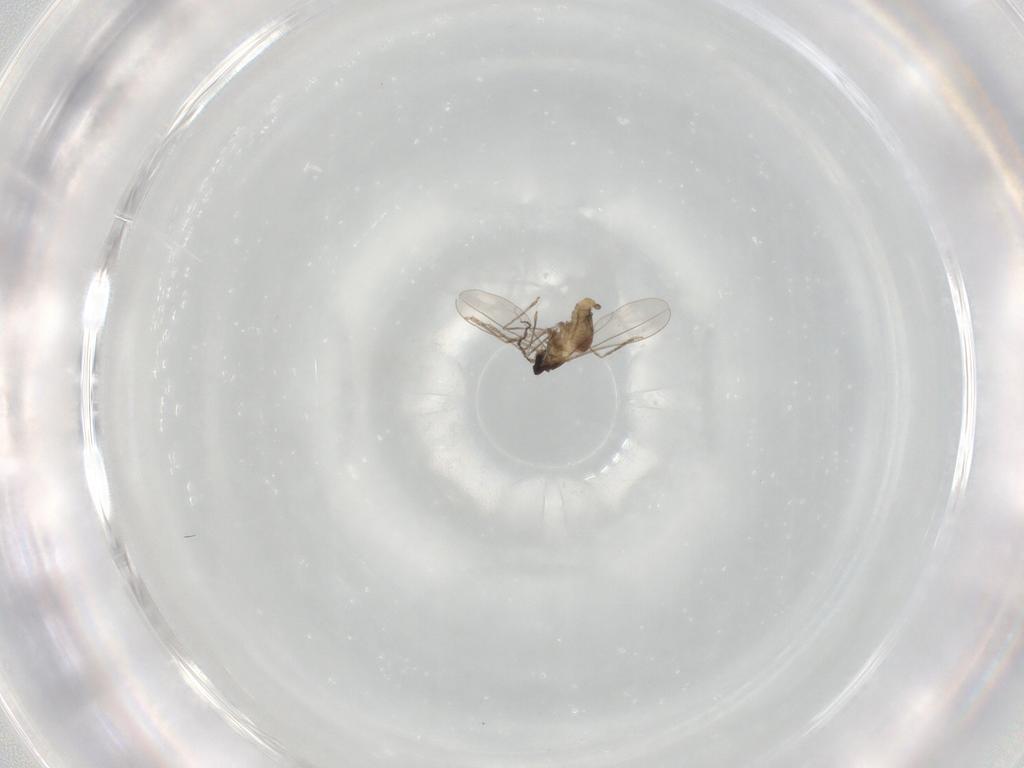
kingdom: Animalia
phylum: Arthropoda
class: Insecta
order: Diptera
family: Cecidomyiidae
